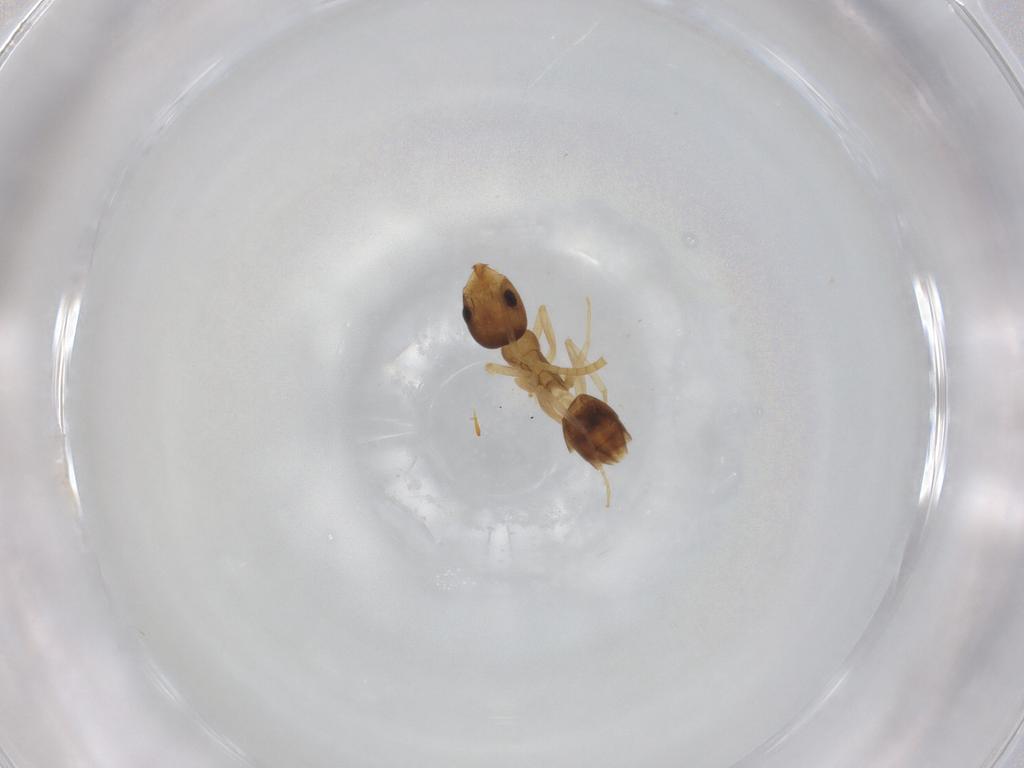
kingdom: Animalia
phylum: Arthropoda
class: Insecta
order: Hymenoptera
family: Formicidae
